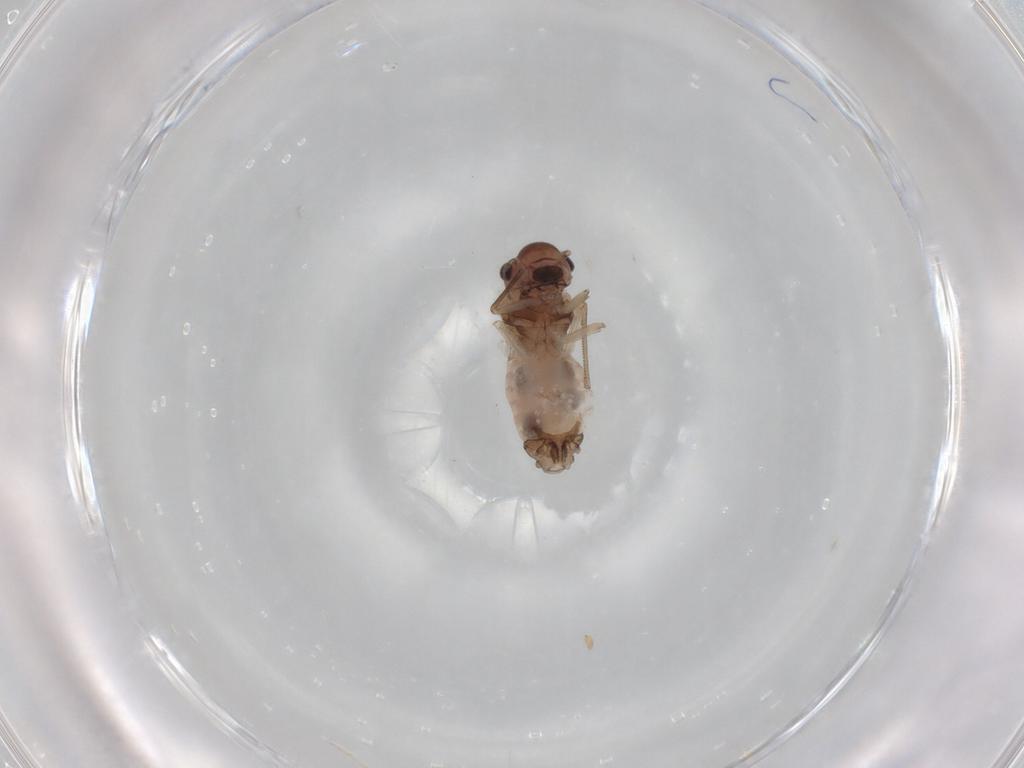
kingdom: Animalia
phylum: Arthropoda
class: Insecta
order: Psocodea
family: Peripsocidae
